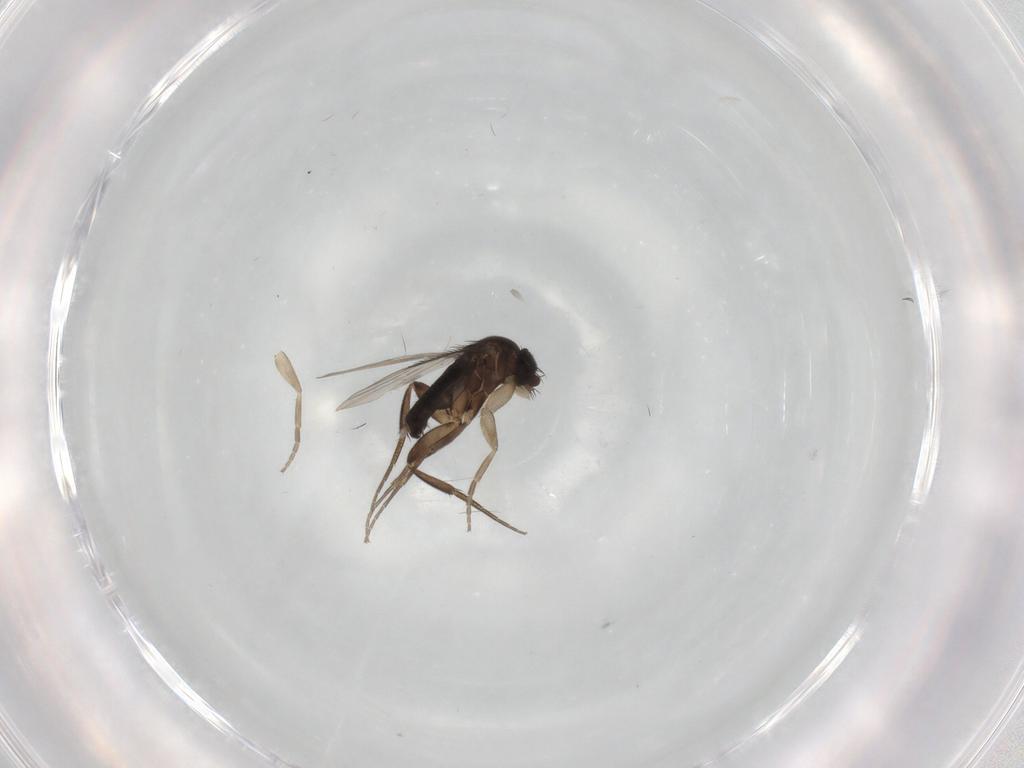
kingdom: Animalia
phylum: Arthropoda
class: Insecta
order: Diptera
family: Phoridae
